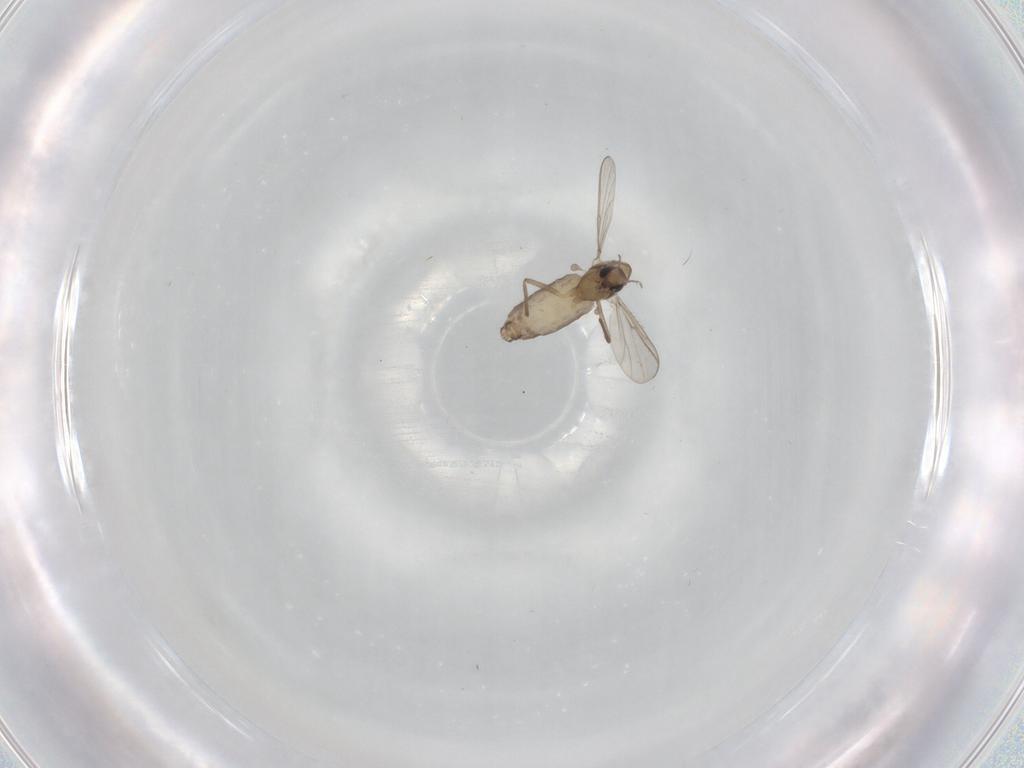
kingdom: Animalia
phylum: Arthropoda
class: Insecta
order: Diptera
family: Chironomidae
